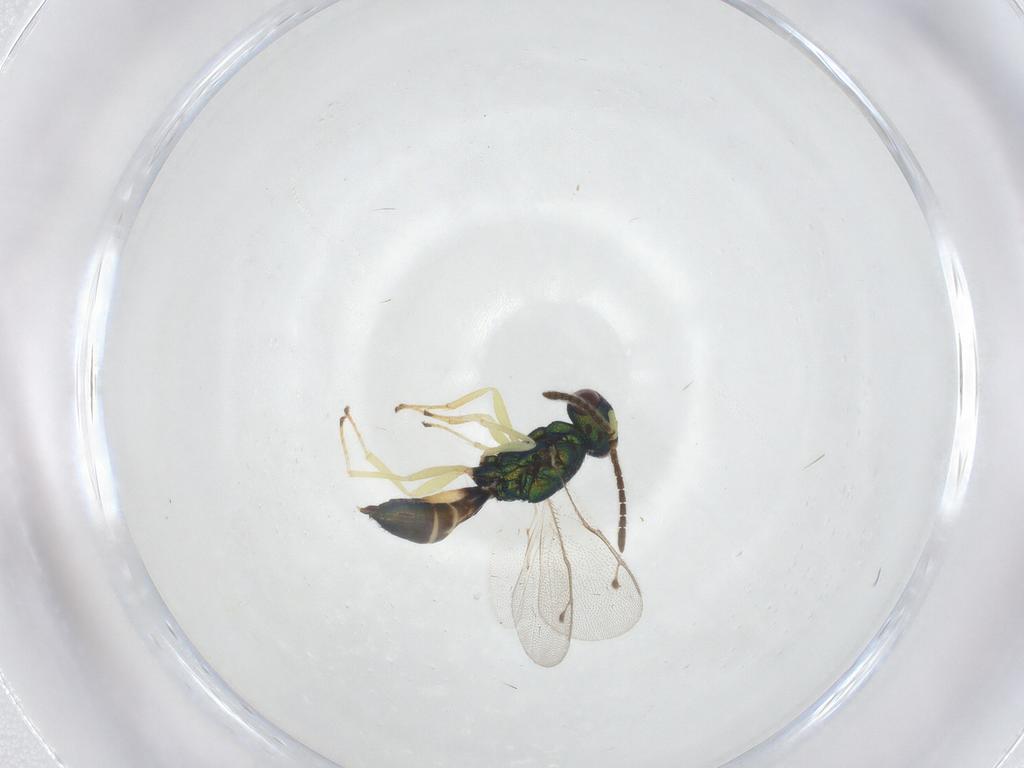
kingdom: Animalia
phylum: Arthropoda
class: Insecta
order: Hymenoptera
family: Pteromalidae
